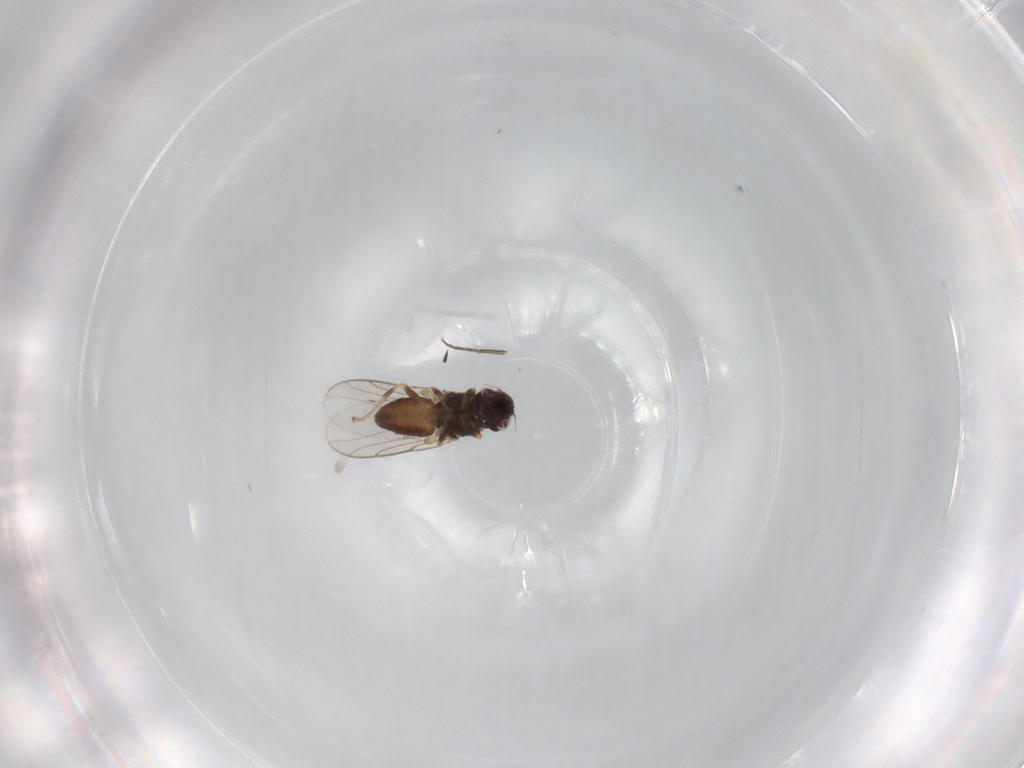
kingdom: Animalia
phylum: Arthropoda
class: Insecta
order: Diptera
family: Chloropidae
